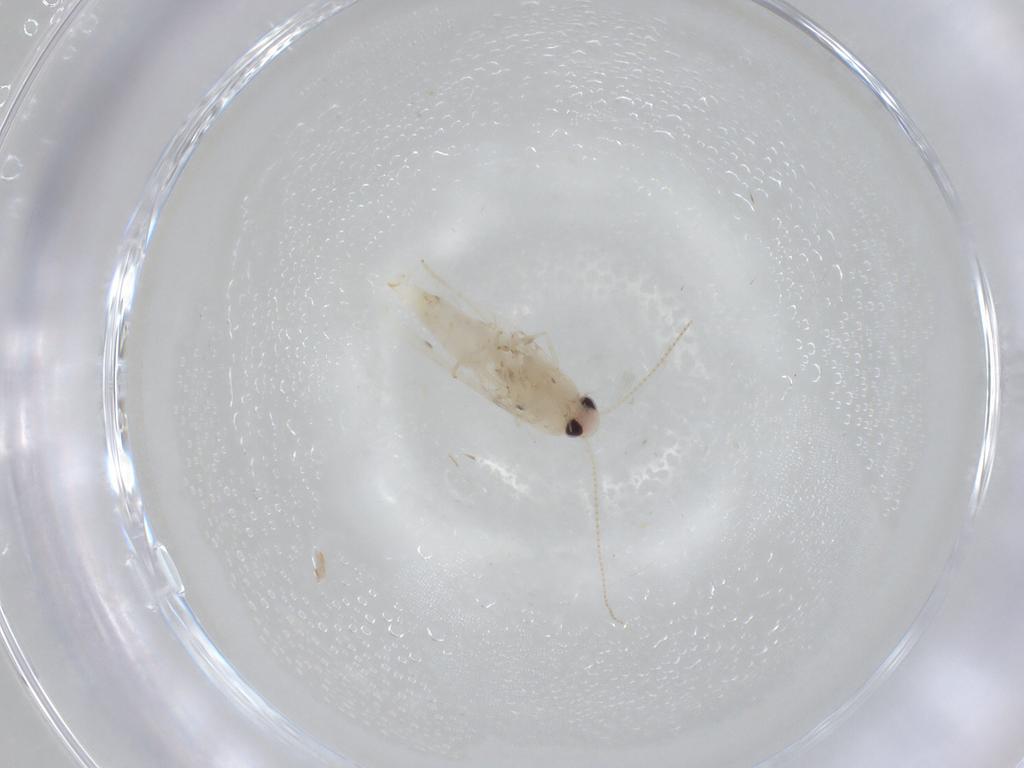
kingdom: Animalia
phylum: Arthropoda
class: Insecta
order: Lepidoptera
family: Gracillariidae
